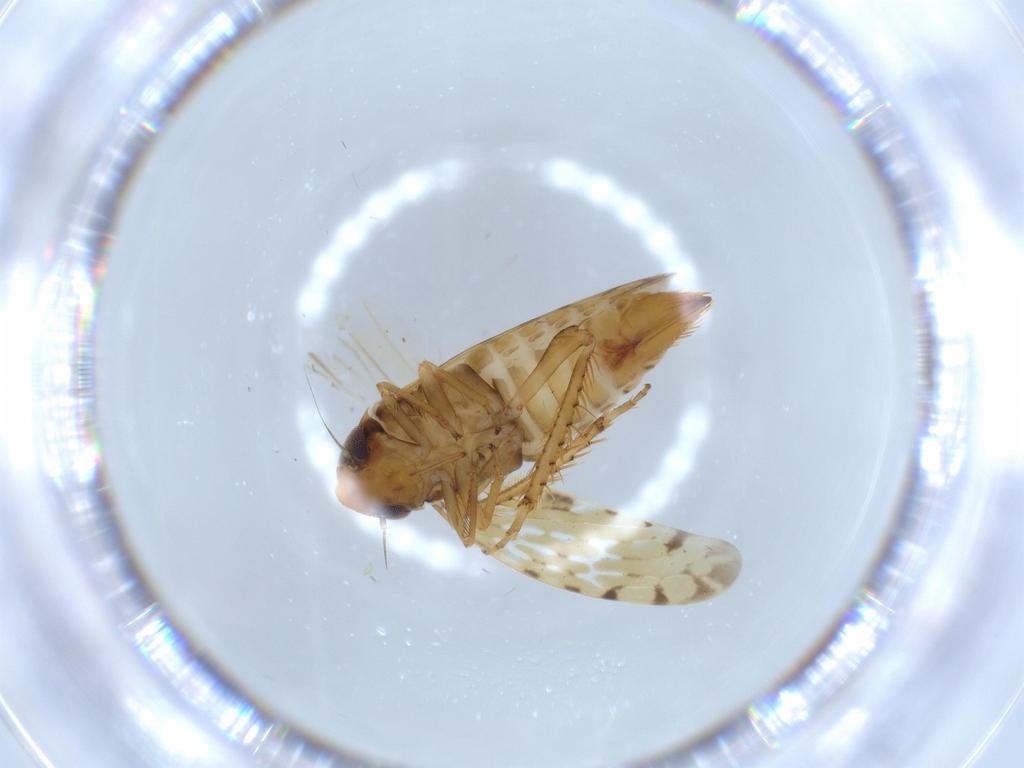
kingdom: Animalia
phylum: Arthropoda
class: Insecta
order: Hemiptera
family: Cicadellidae
